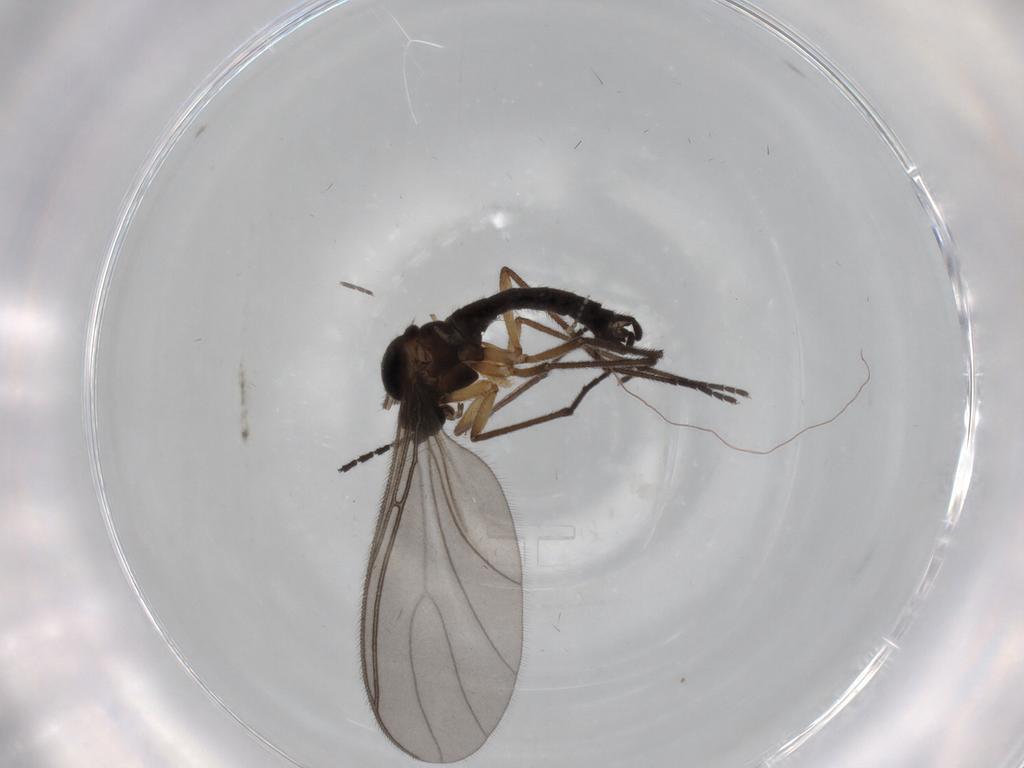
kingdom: Animalia
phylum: Arthropoda
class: Insecta
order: Diptera
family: Sciaridae
